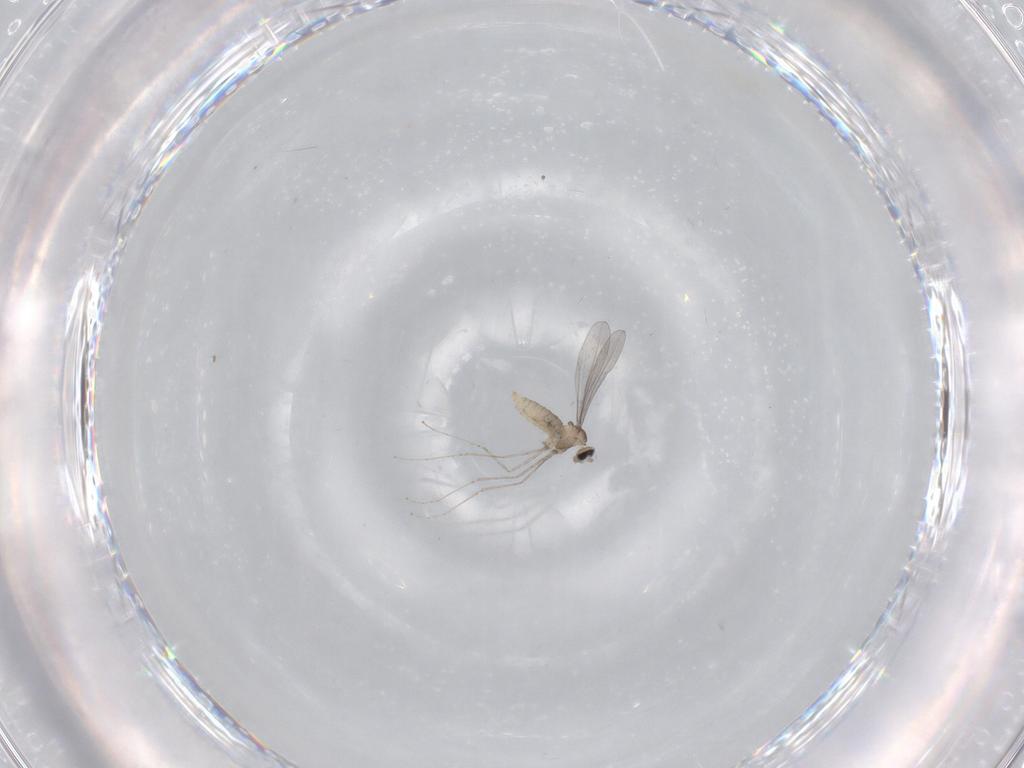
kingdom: Animalia
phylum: Arthropoda
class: Insecta
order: Diptera
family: Cecidomyiidae
